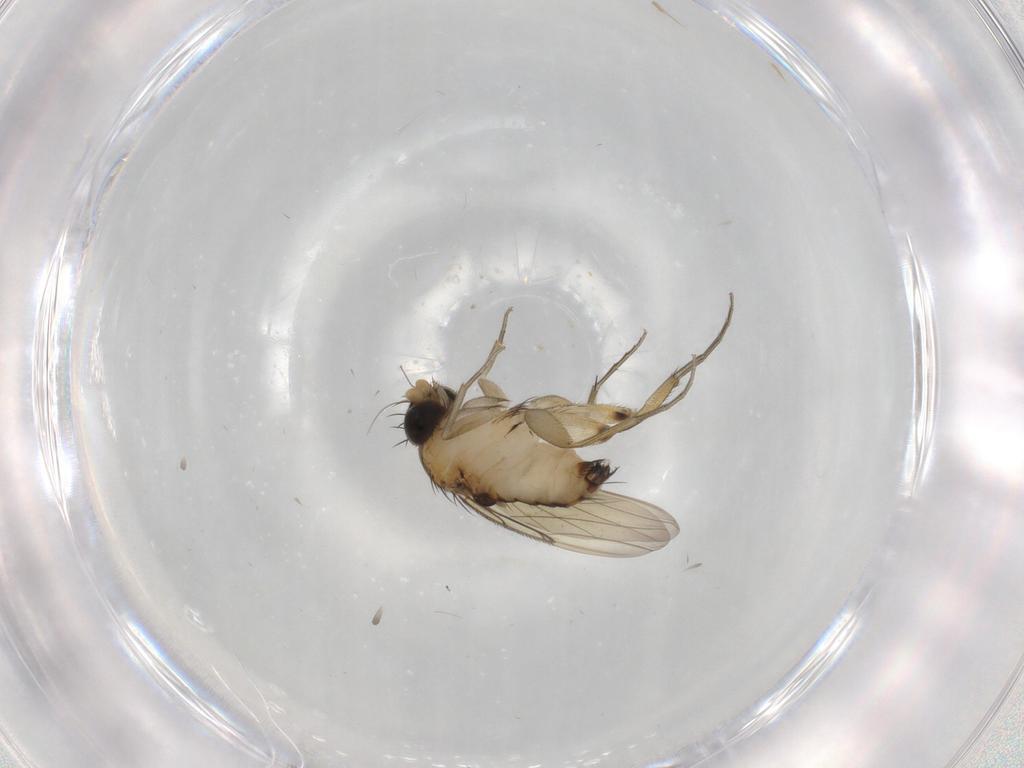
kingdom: Animalia
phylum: Arthropoda
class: Insecta
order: Diptera
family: Phoridae
